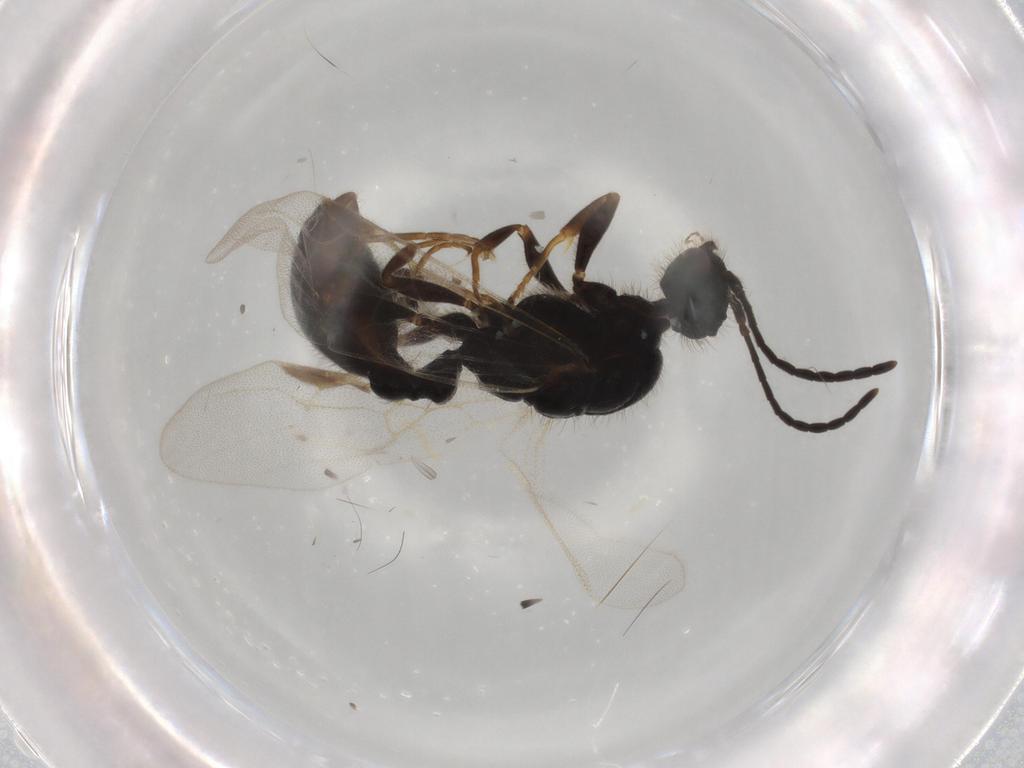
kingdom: Animalia
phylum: Arthropoda
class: Insecta
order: Hymenoptera
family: Formicidae
